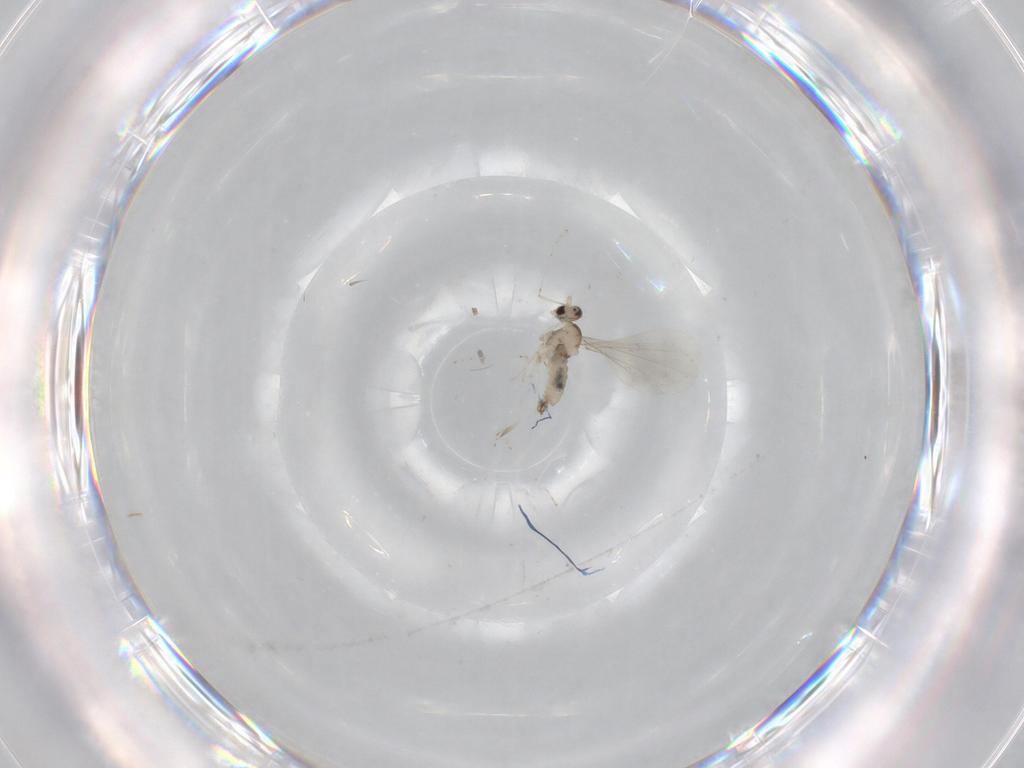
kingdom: Animalia
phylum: Arthropoda
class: Insecta
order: Diptera
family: Cecidomyiidae
